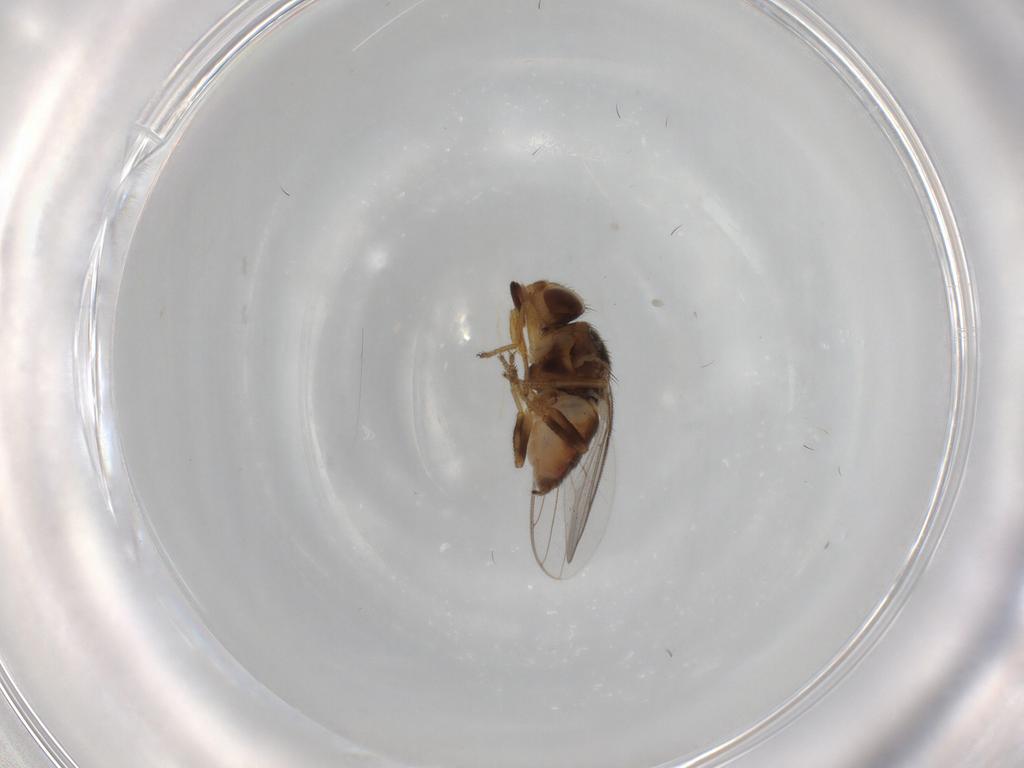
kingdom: Animalia
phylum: Arthropoda
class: Insecta
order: Diptera
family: Chloropidae
